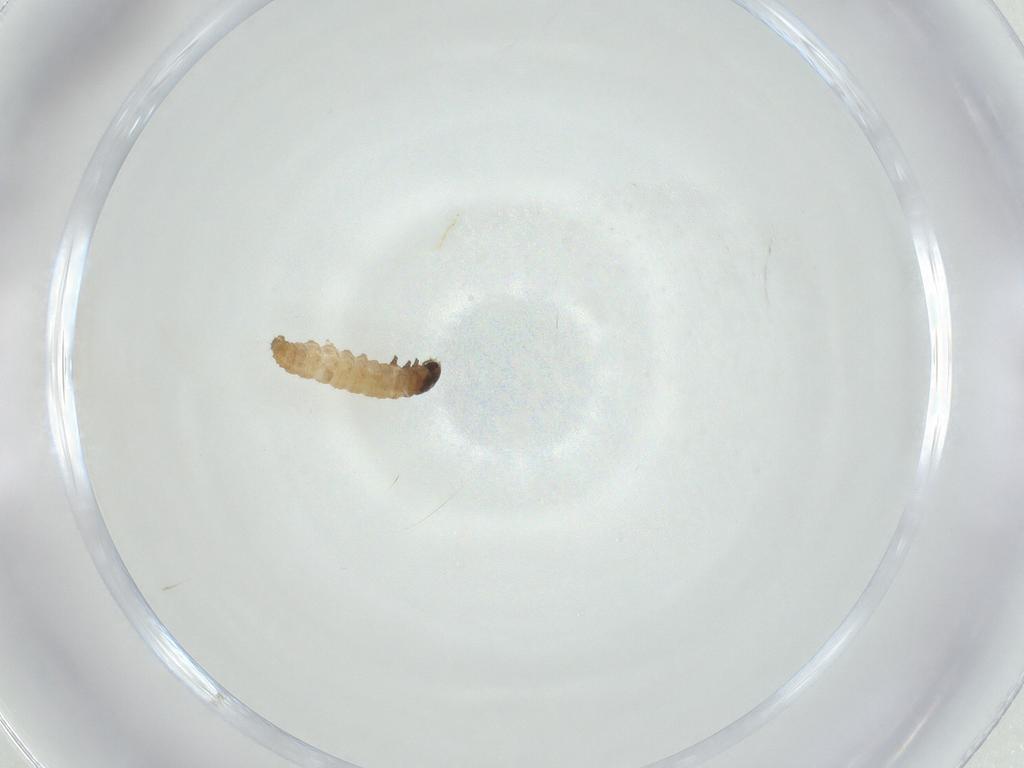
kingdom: Animalia
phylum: Arthropoda
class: Insecta
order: Lepidoptera
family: Gelechiidae
